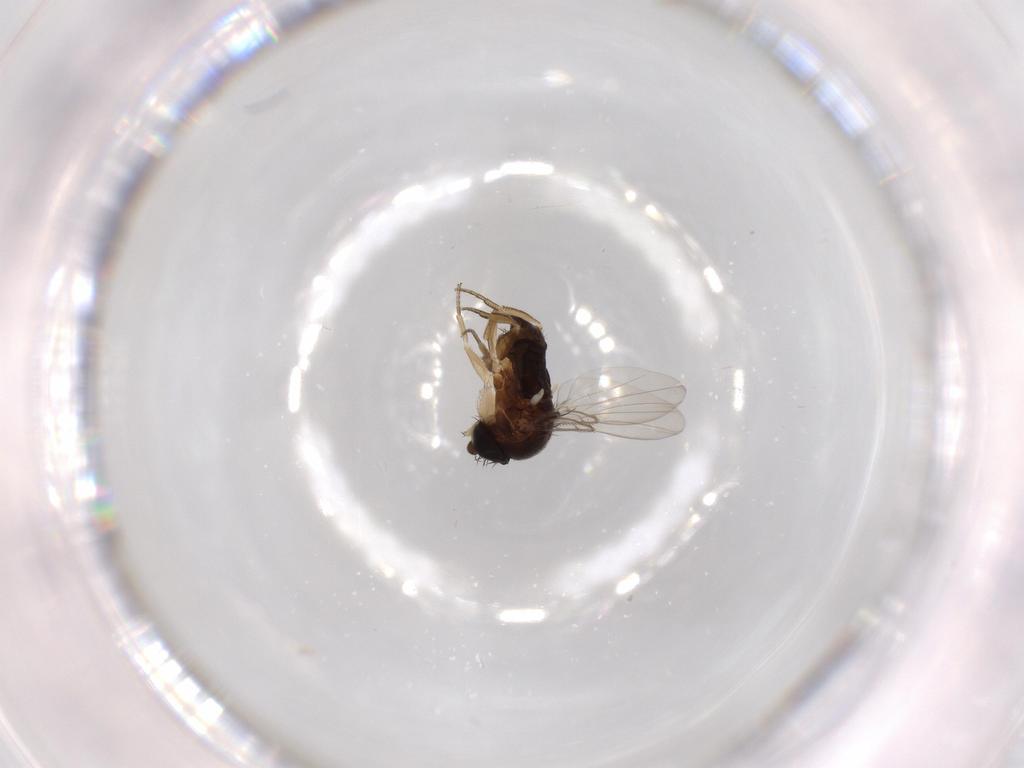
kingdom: Animalia
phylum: Arthropoda
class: Insecta
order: Diptera
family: Phoridae
